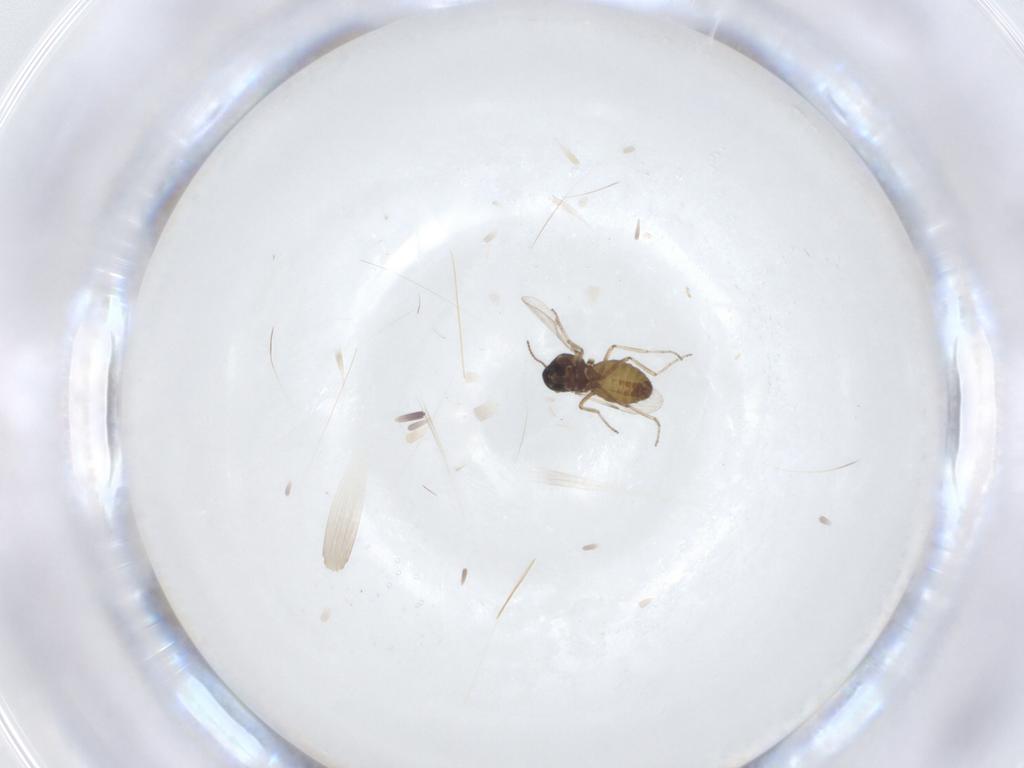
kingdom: Animalia
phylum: Arthropoda
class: Insecta
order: Diptera
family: Ceratopogonidae
